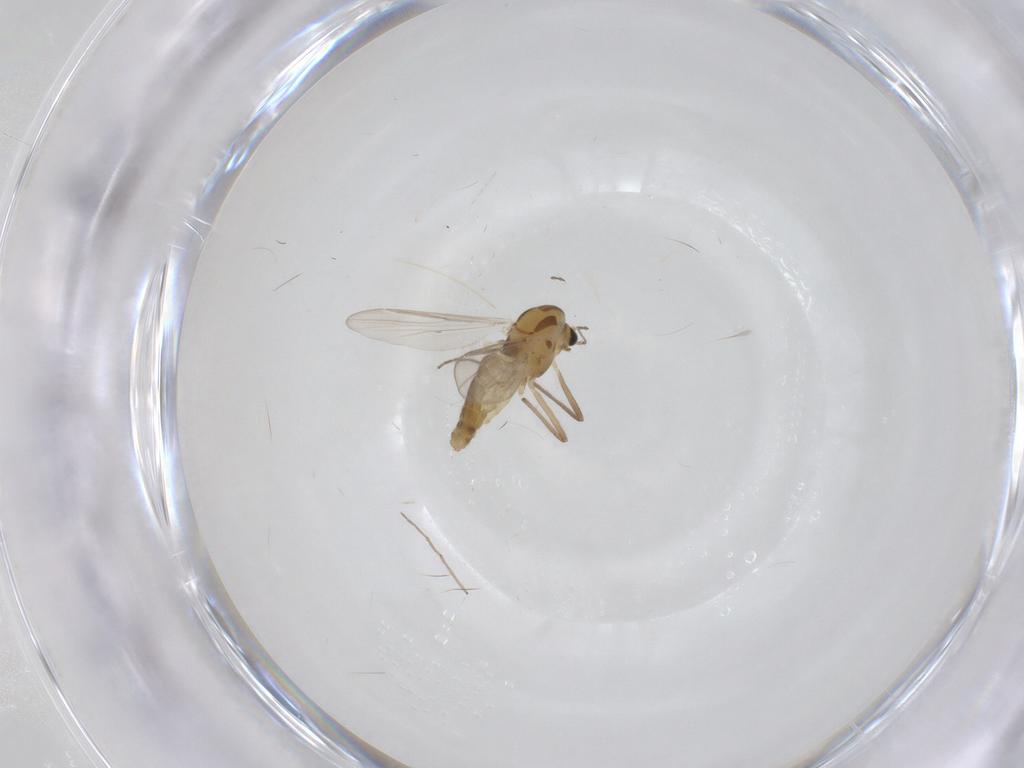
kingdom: Animalia
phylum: Arthropoda
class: Insecta
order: Diptera
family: Chironomidae
